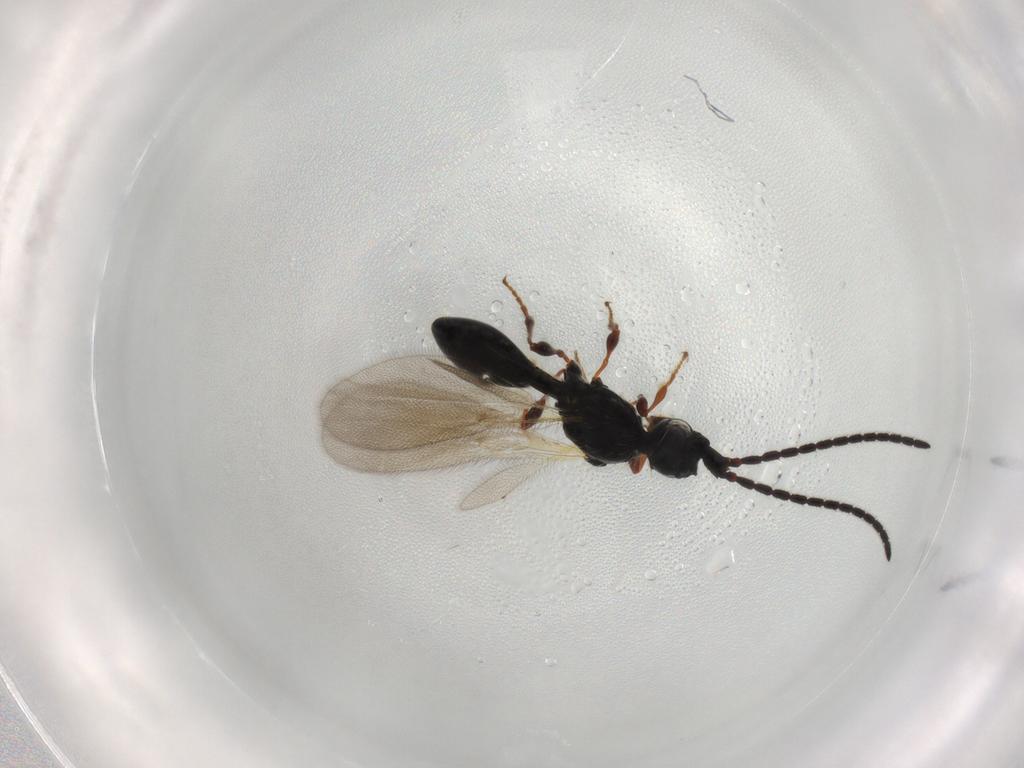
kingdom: Animalia
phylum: Arthropoda
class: Insecta
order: Hymenoptera
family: Diapriidae
